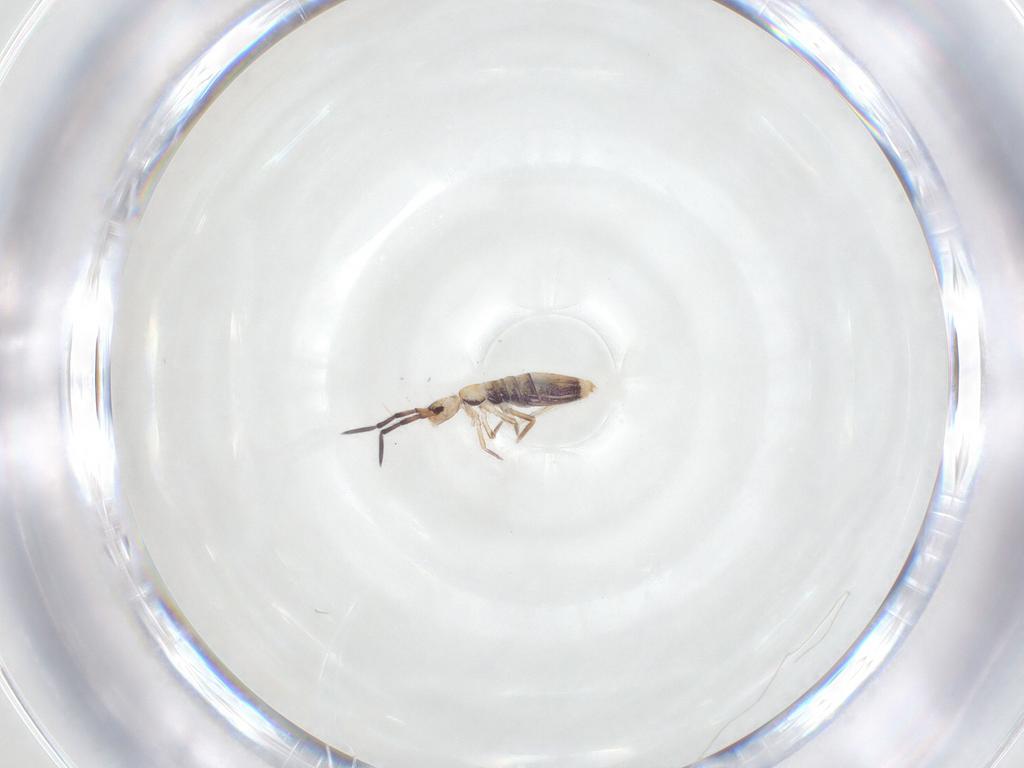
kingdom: Animalia
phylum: Arthropoda
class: Collembola
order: Entomobryomorpha
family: Entomobryidae
